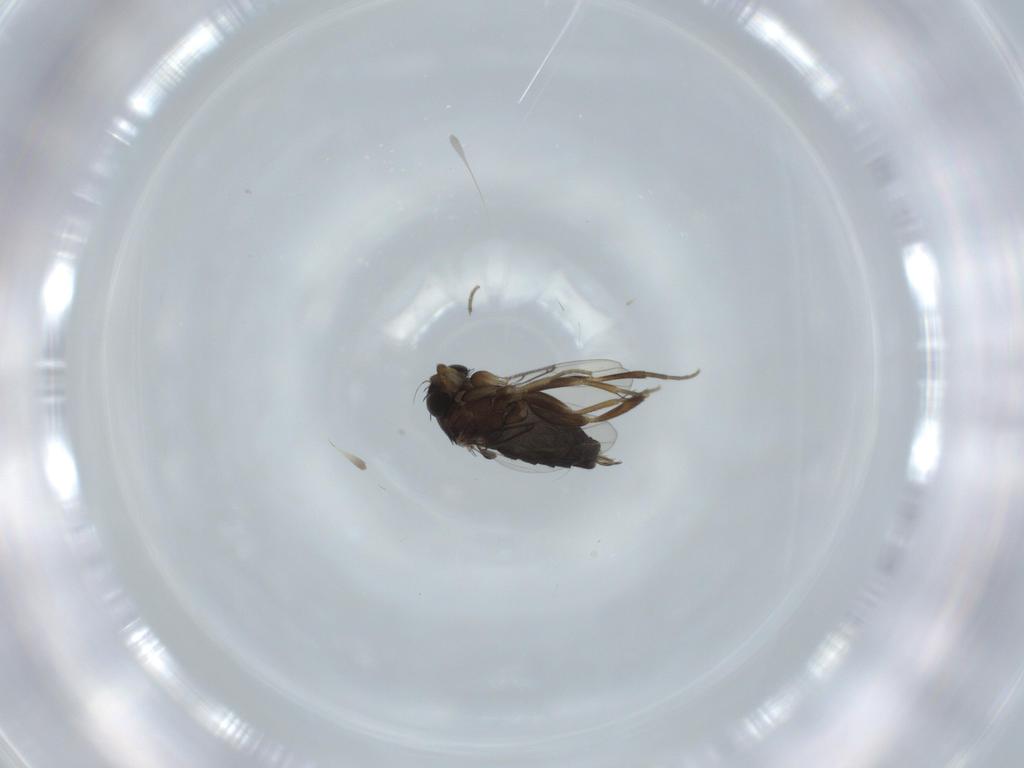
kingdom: Animalia
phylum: Arthropoda
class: Insecta
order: Diptera
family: Phoridae
